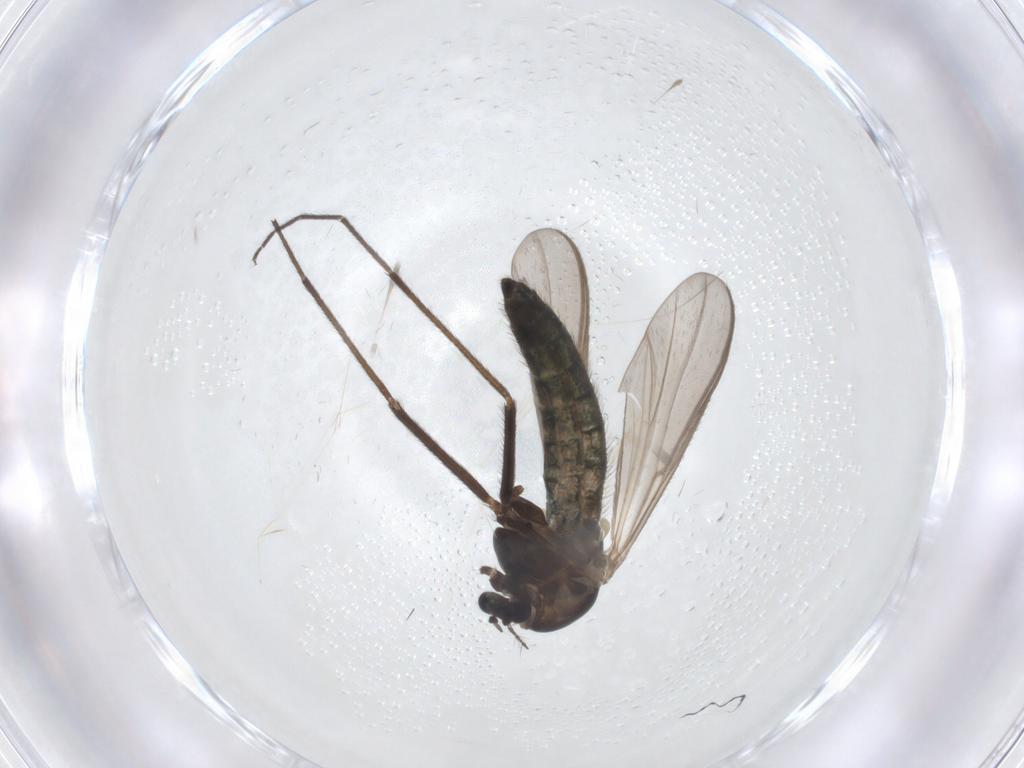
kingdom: Animalia
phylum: Arthropoda
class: Insecta
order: Diptera
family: Chironomidae
